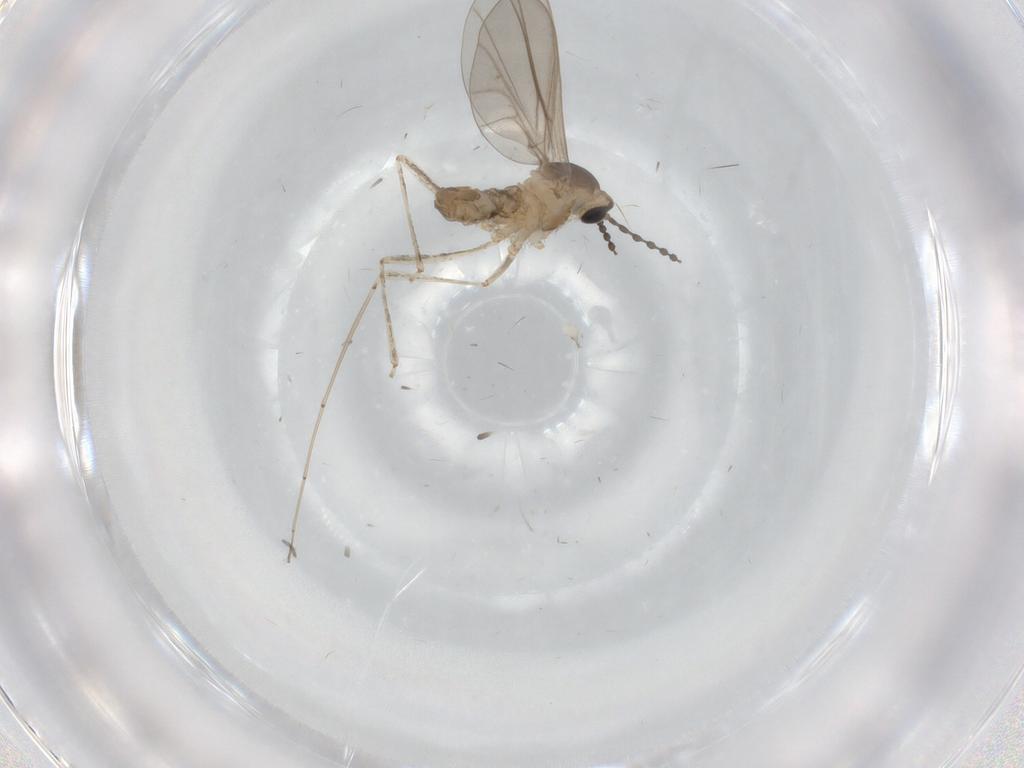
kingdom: Animalia
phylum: Arthropoda
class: Insecta
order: Diptera
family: Cecidomyiidae
